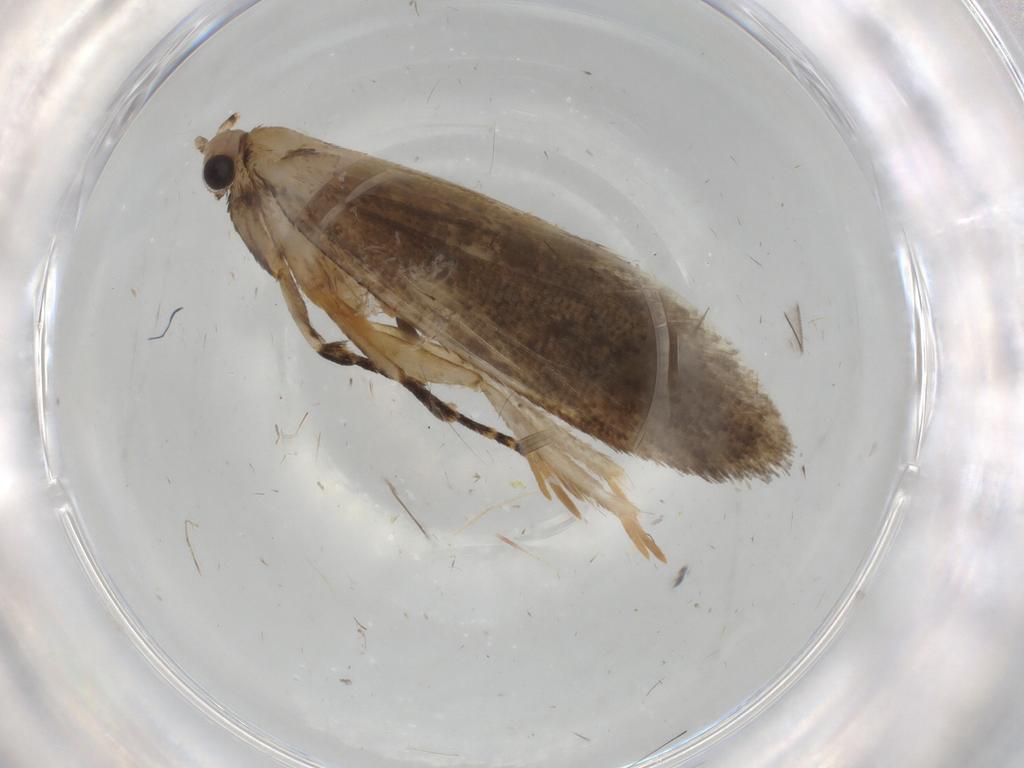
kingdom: Animalia
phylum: Arthropoda
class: Insecta
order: Lepidoptera
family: Tineidae
